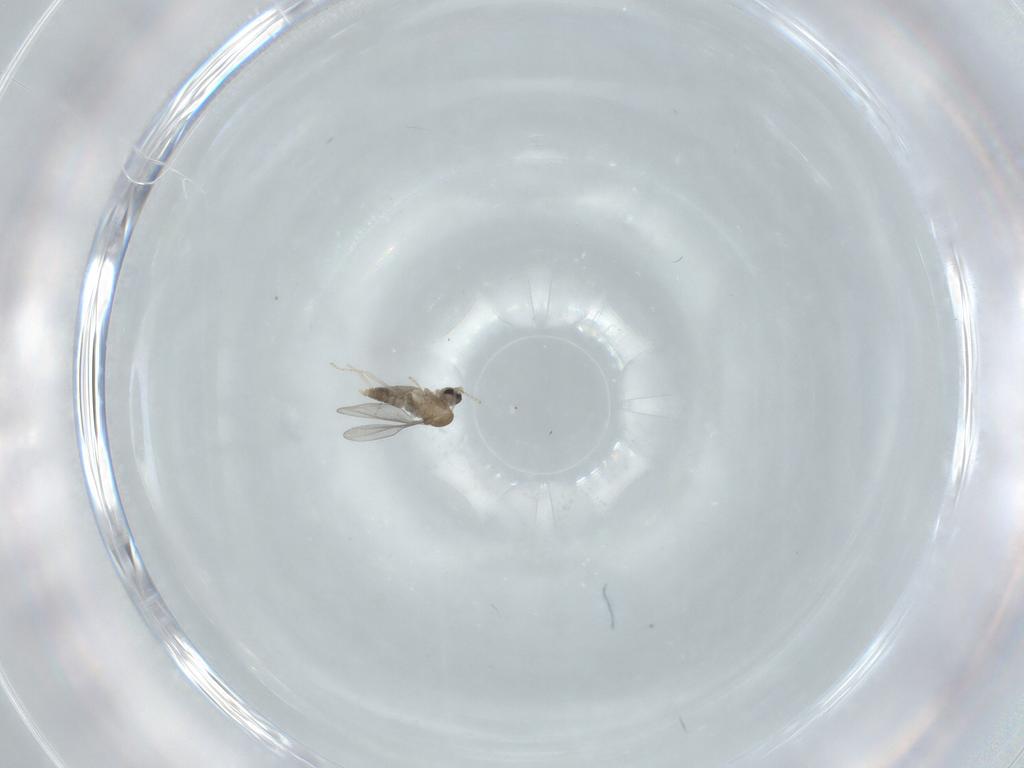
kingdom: Animalia
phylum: Arthropoda
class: Insecta
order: Diptera
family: Cecidomyiidae
